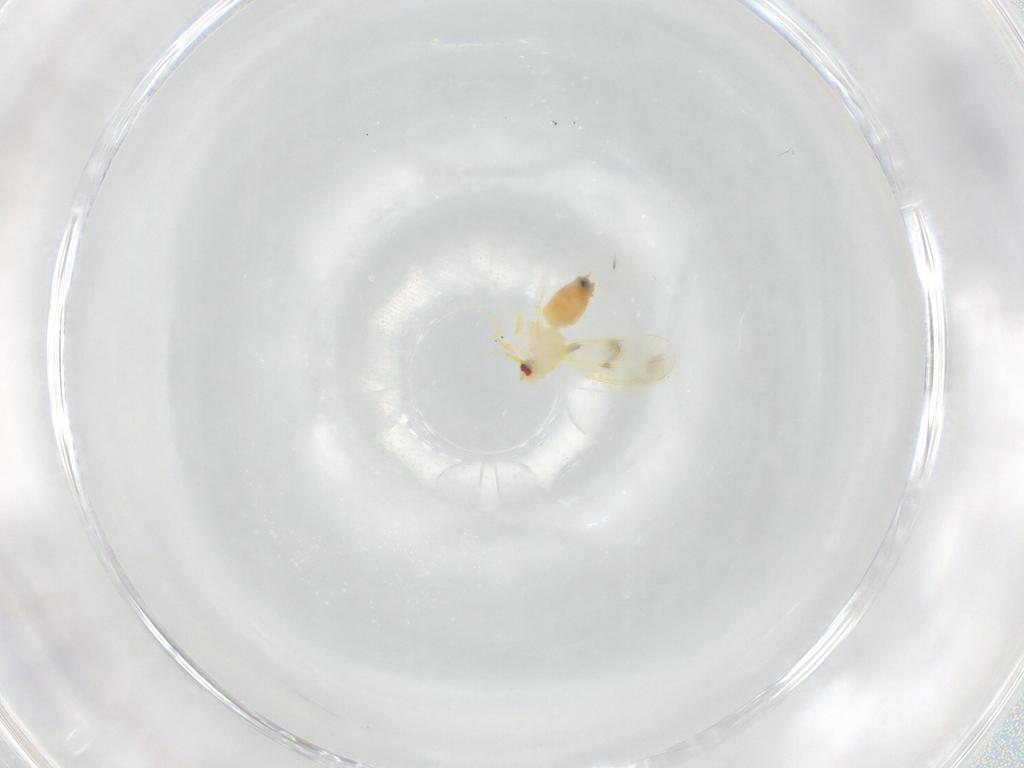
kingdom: Animalia
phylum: Arthropoda
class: Insecta
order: Hemiptera
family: Aleyrodidae
